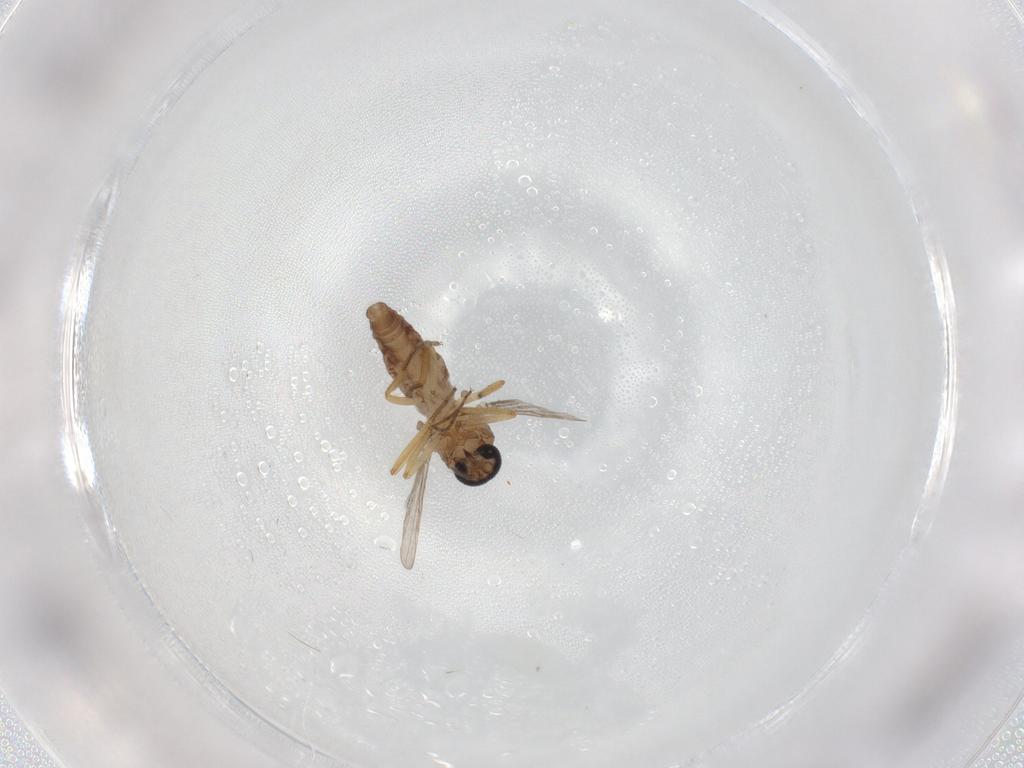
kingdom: Animalia
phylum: Arthropoda
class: Insecta
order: Diptera
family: Ceratopogonidae
